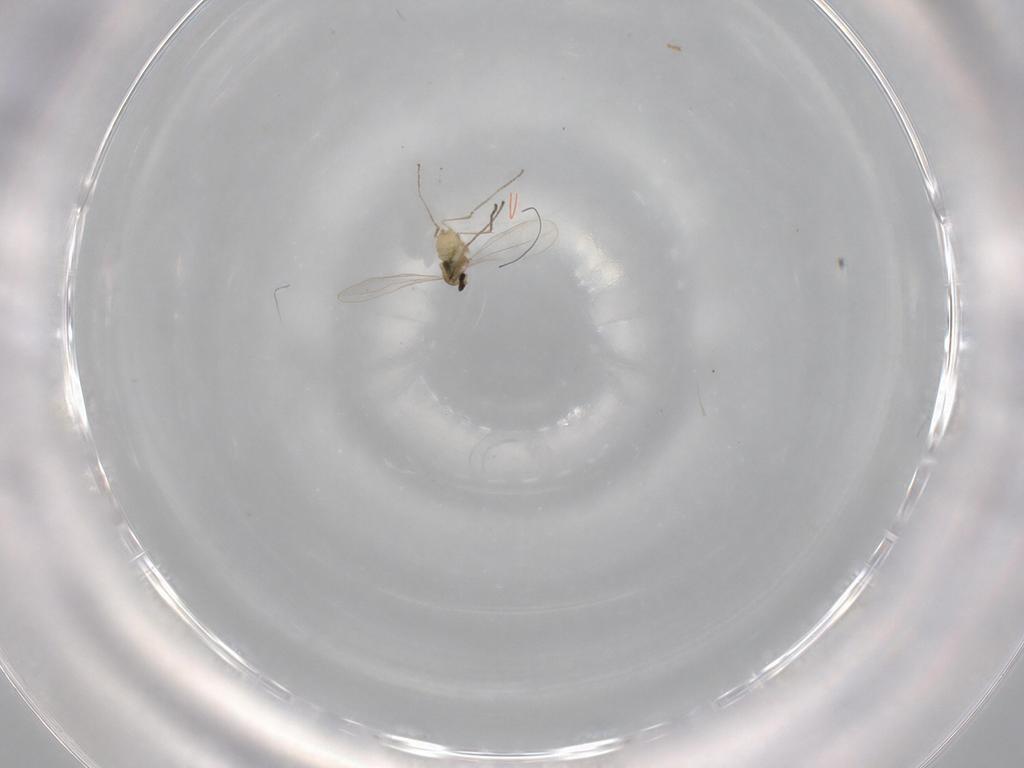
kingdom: Animalia
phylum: Arthropoda
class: Insecta
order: Diptera
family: Cecidomyiidae
